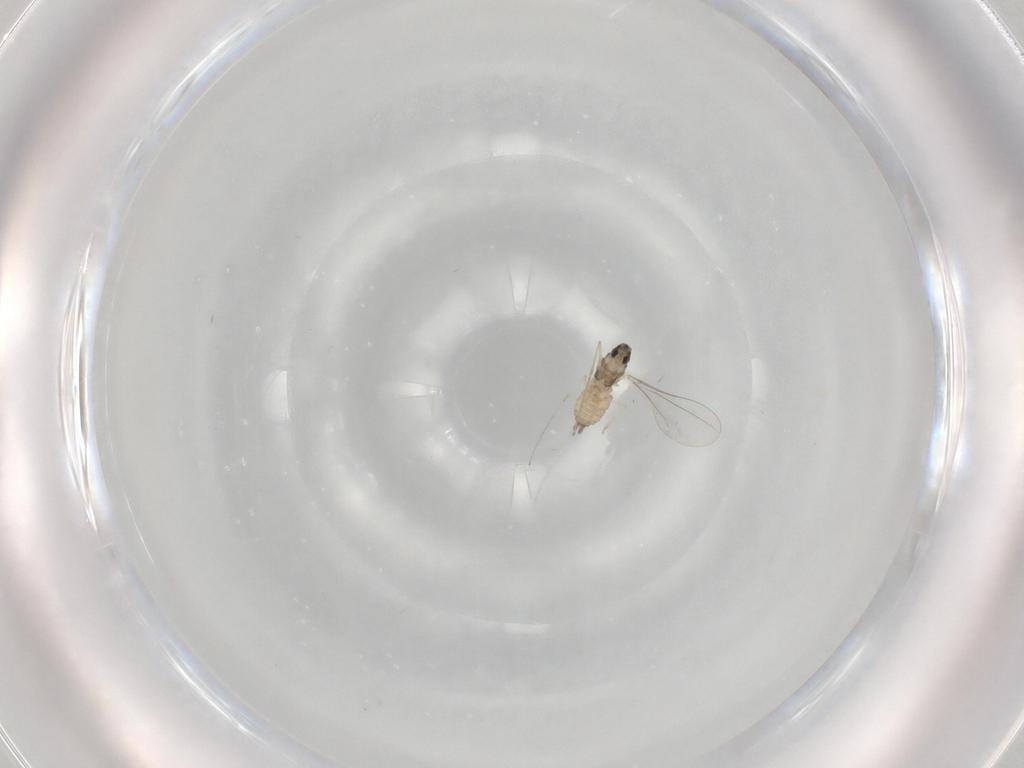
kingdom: Animalia
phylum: Arthropoda
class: Insecta
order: Diptera
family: Cecidomyiidae
